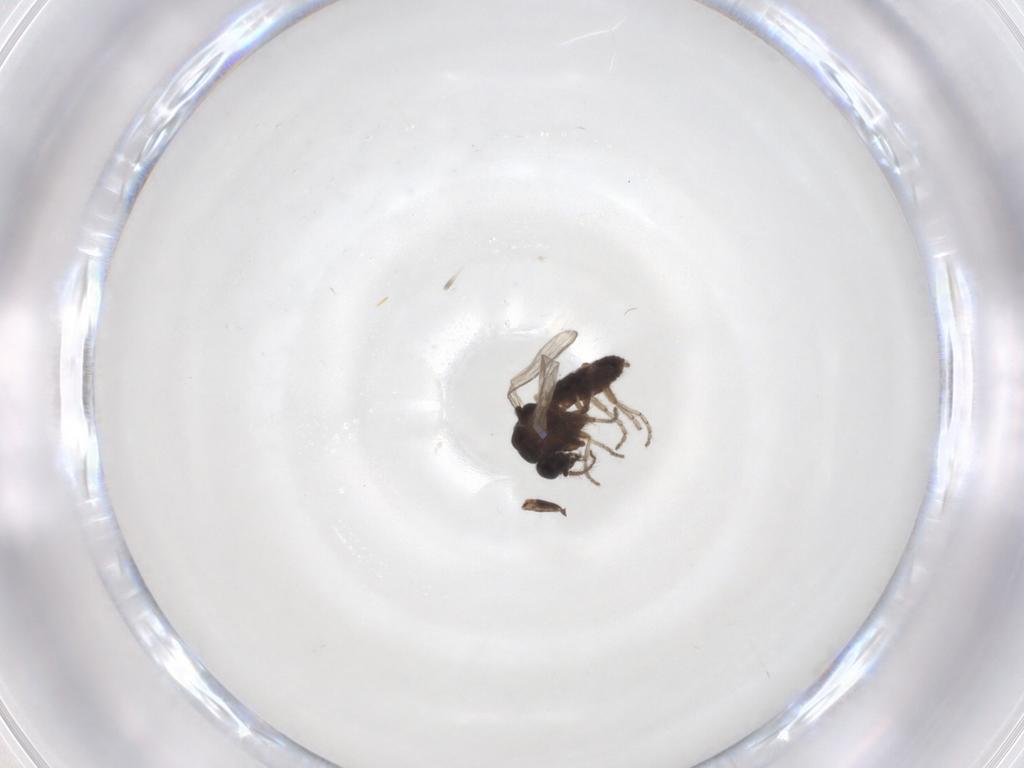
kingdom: Animalia
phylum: Arthropoda
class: Insecta
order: Diptera
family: Ceratopogonidae
